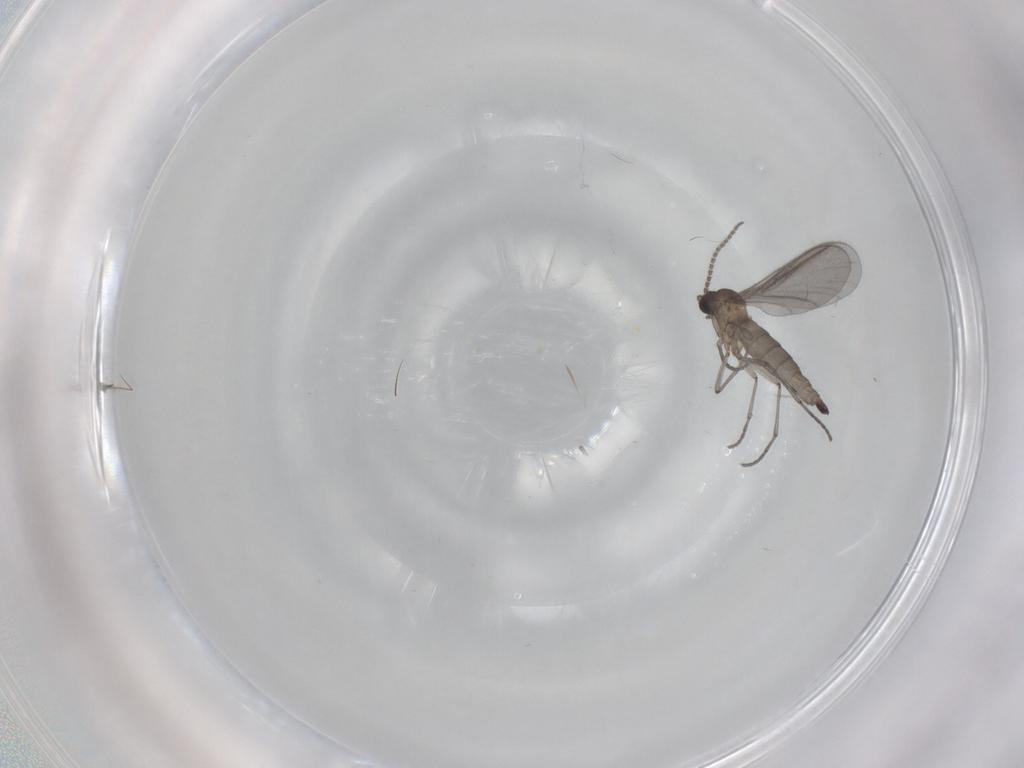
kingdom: Animalia
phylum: Arthropoda
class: Insecta
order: Diptera
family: Sciaridae
